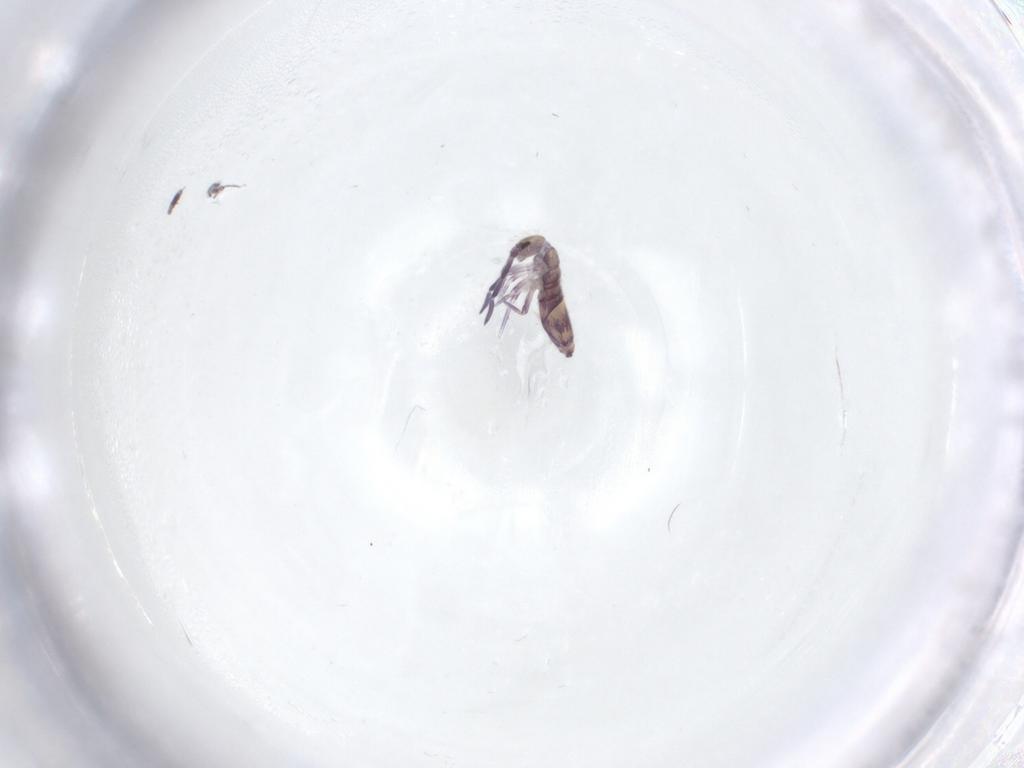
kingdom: Animalia
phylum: Arthropoda
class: Collembola
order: Entomobryomorpha
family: Entomobryidae
